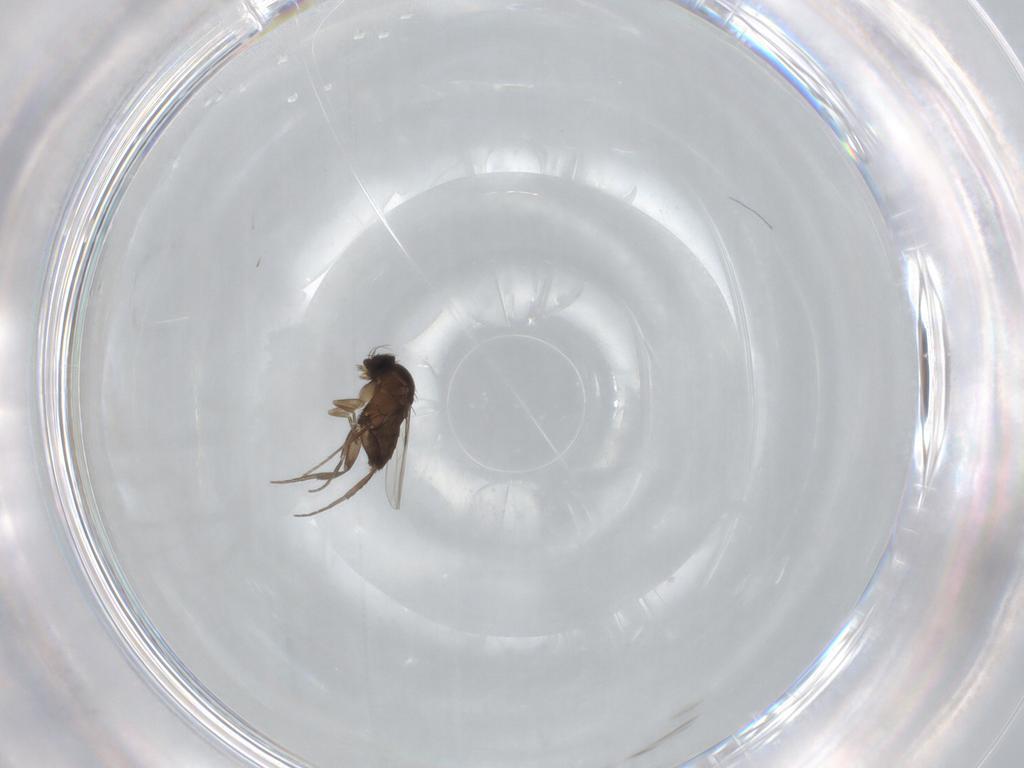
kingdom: Animalia
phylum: Arthropoda
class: Insecta
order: Diptera
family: Phoridae
